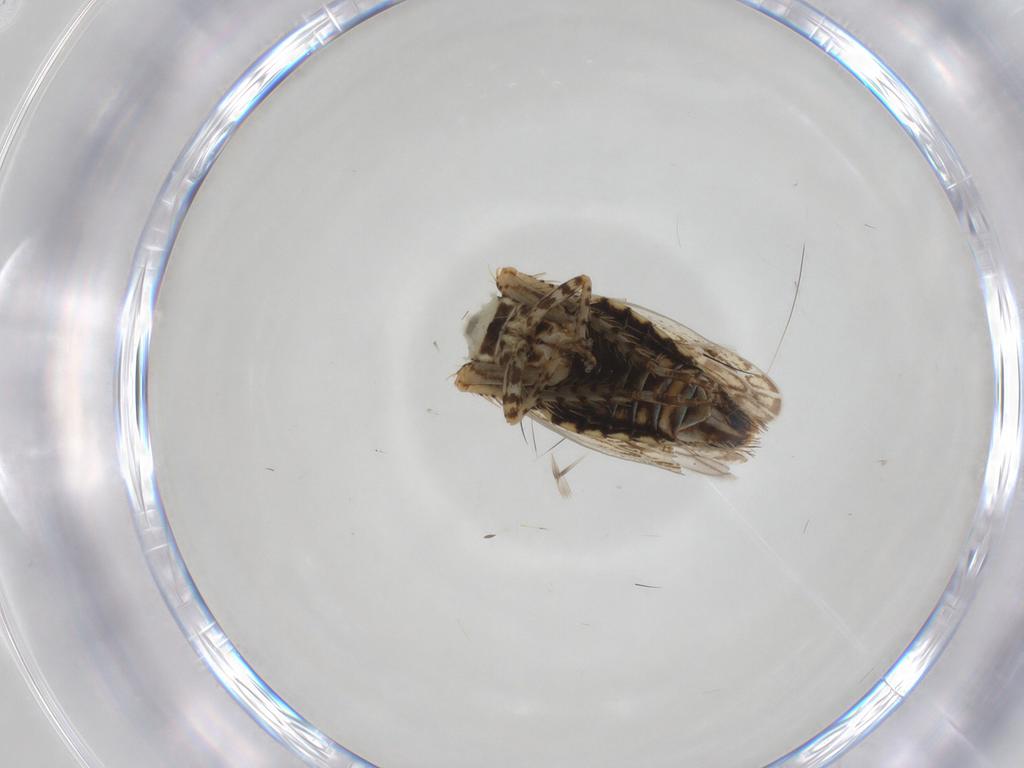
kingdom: Animalia
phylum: Arthropoda
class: Insecta
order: Hemiptera
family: Cicadellidae
